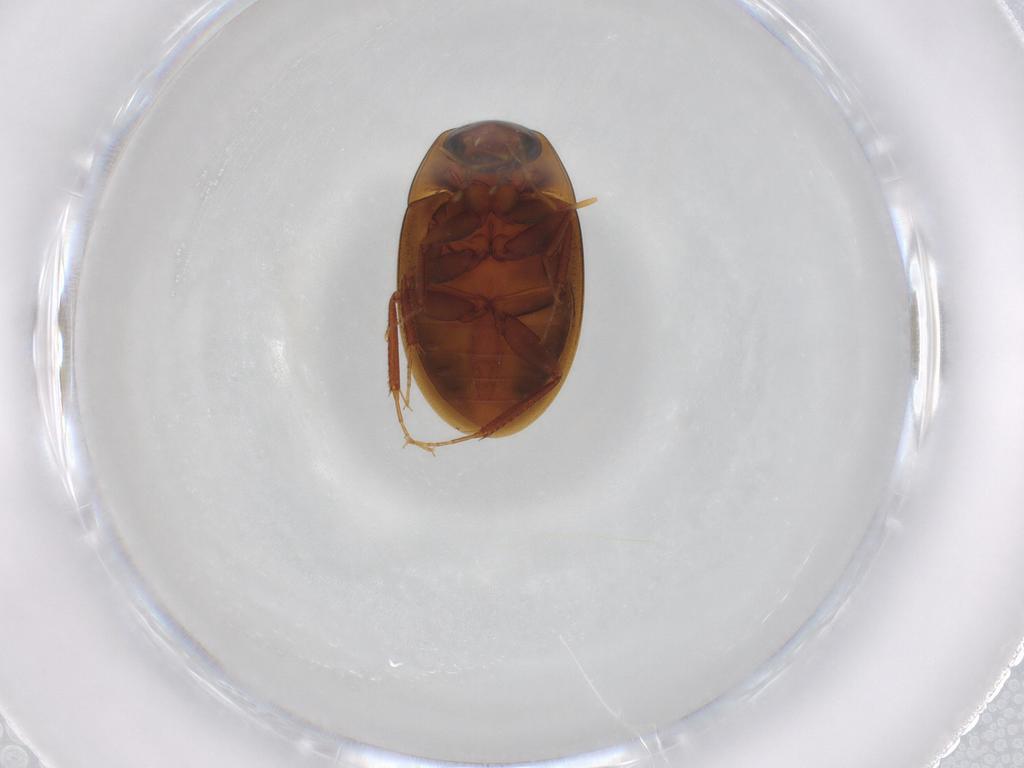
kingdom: Animalia
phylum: Arthropoda
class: Insecta
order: Coleoptera
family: Hydrophilidae
